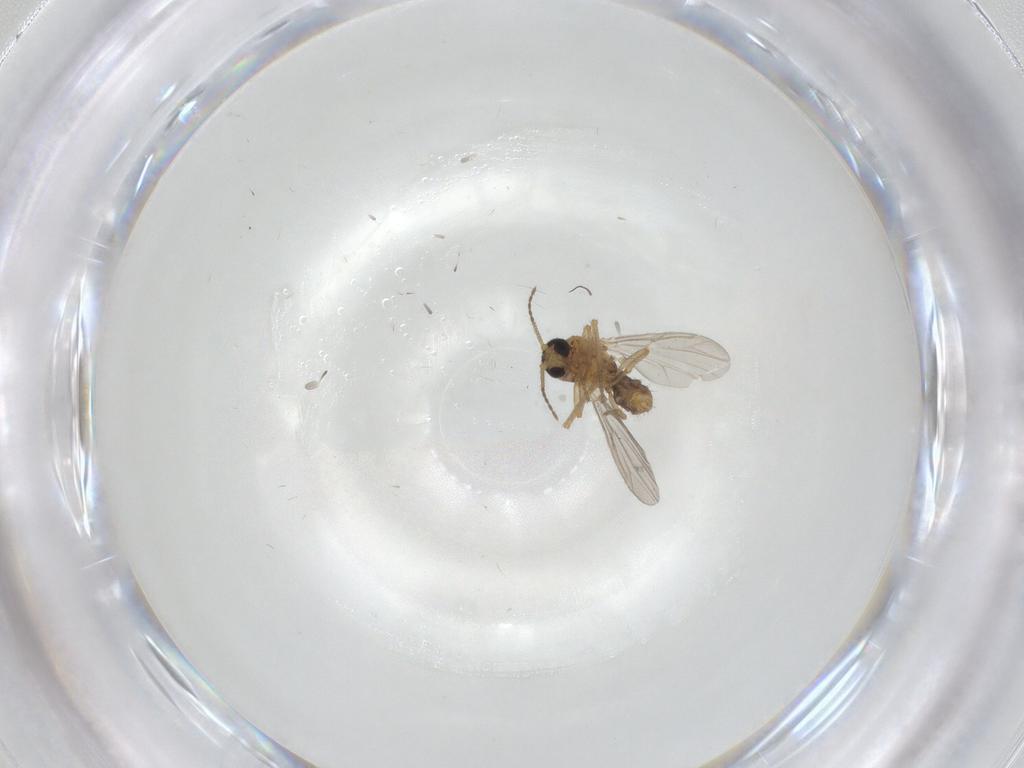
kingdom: Animalia
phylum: Arthropoda
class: Insecta
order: Diptera
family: Ceratopogonidae
